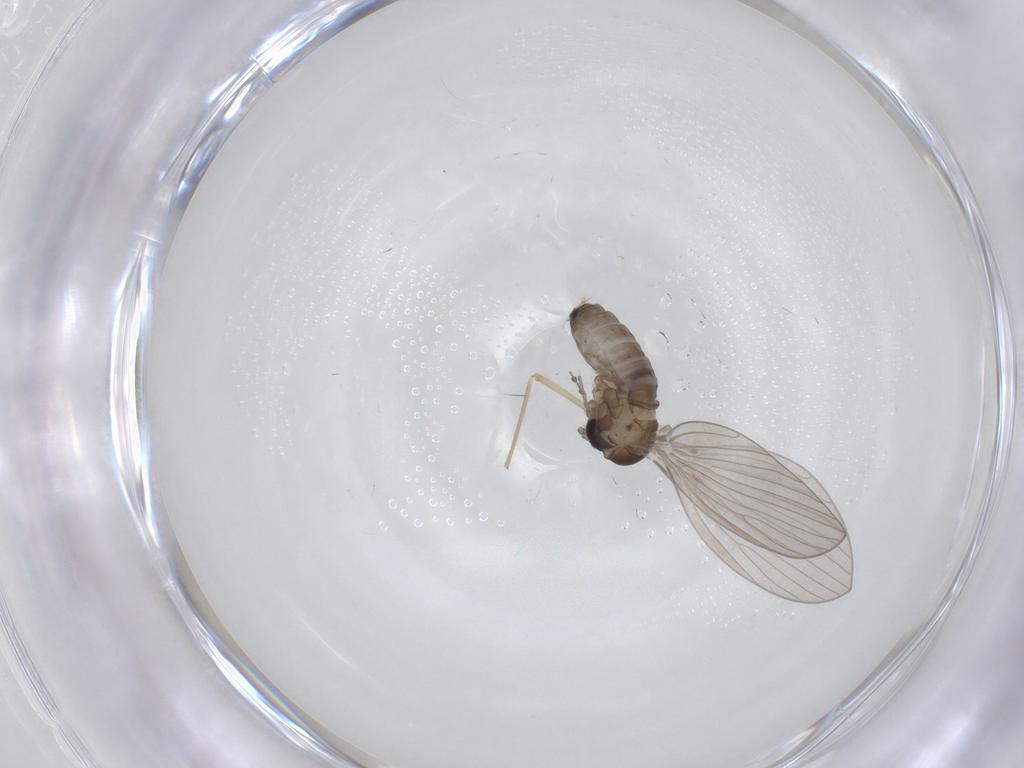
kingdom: Animalia
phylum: Arthropoda
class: Insecta
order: Diptera
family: Chironomidae
